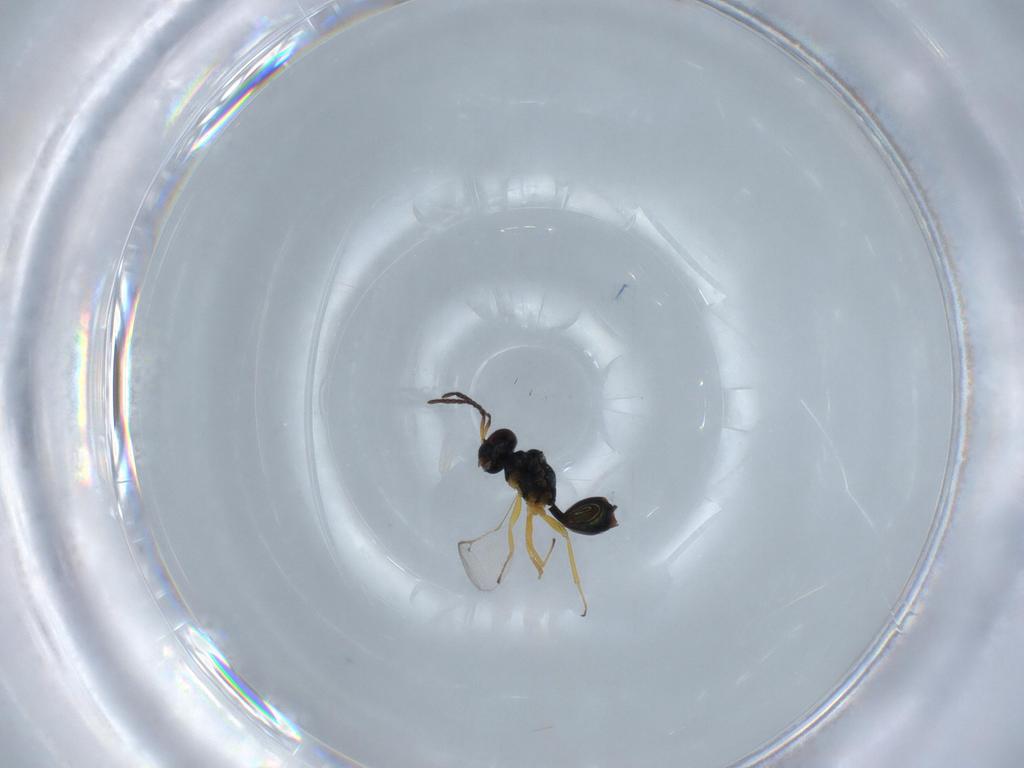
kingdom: Animalia
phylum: Arthropoda
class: Insecta
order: Hymenoptera
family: Pteromalidae
